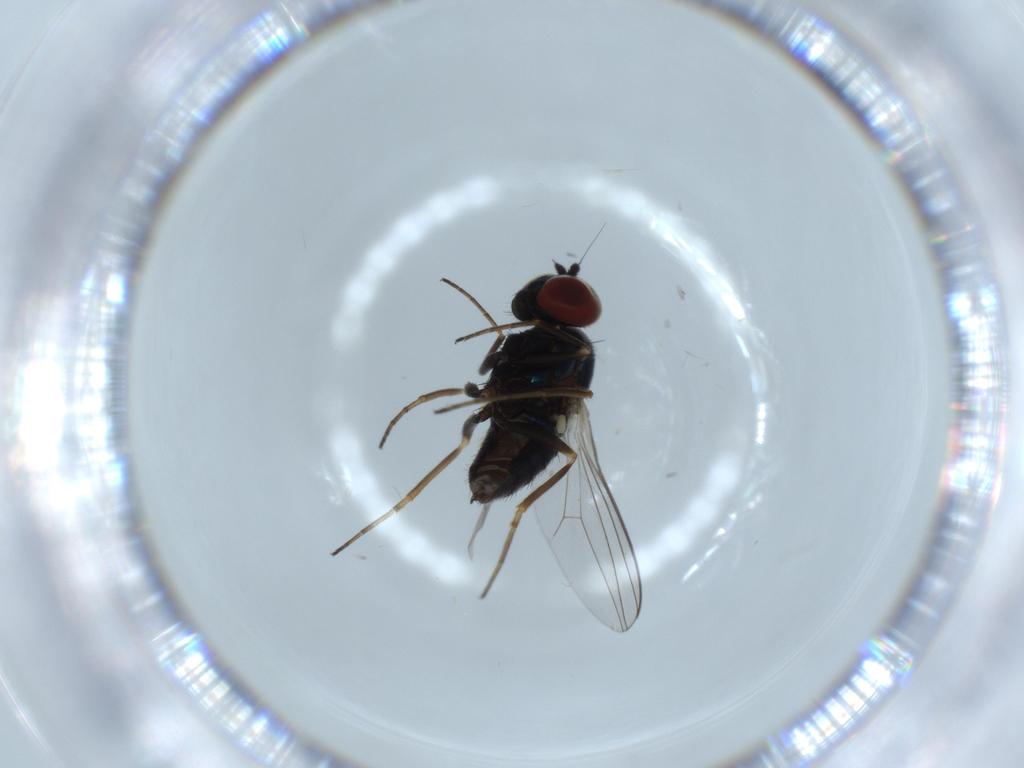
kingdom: Animalia
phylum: Arthropoda
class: Insecta
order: Diptera
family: Dolichopodidae
